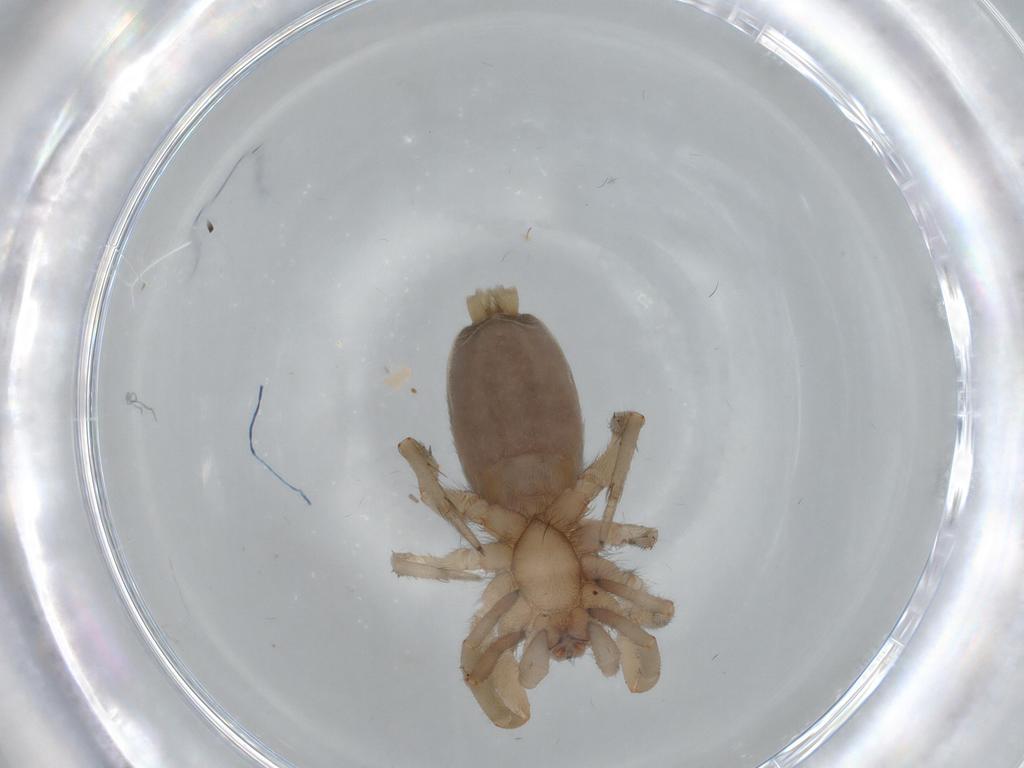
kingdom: Animalia
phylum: Arthropoda
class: Arachnida
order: Araneae
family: Gnaphosidae
